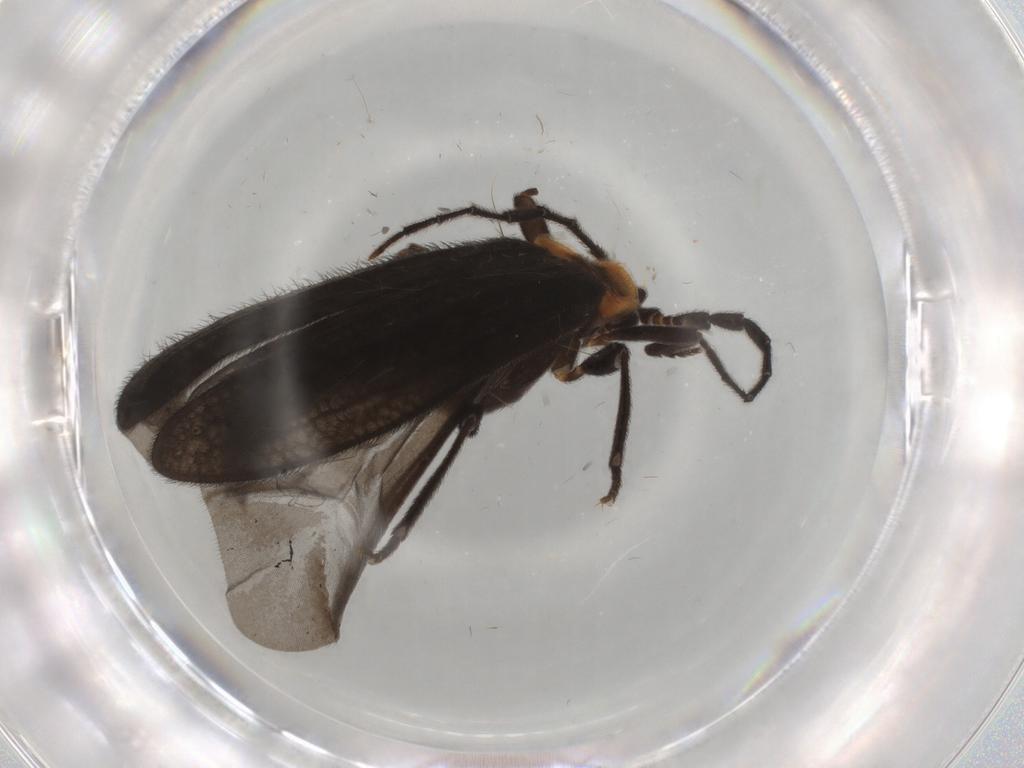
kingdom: Animalia
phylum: Arthropoda
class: Insecta
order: Coleoptera
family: Lycidae
